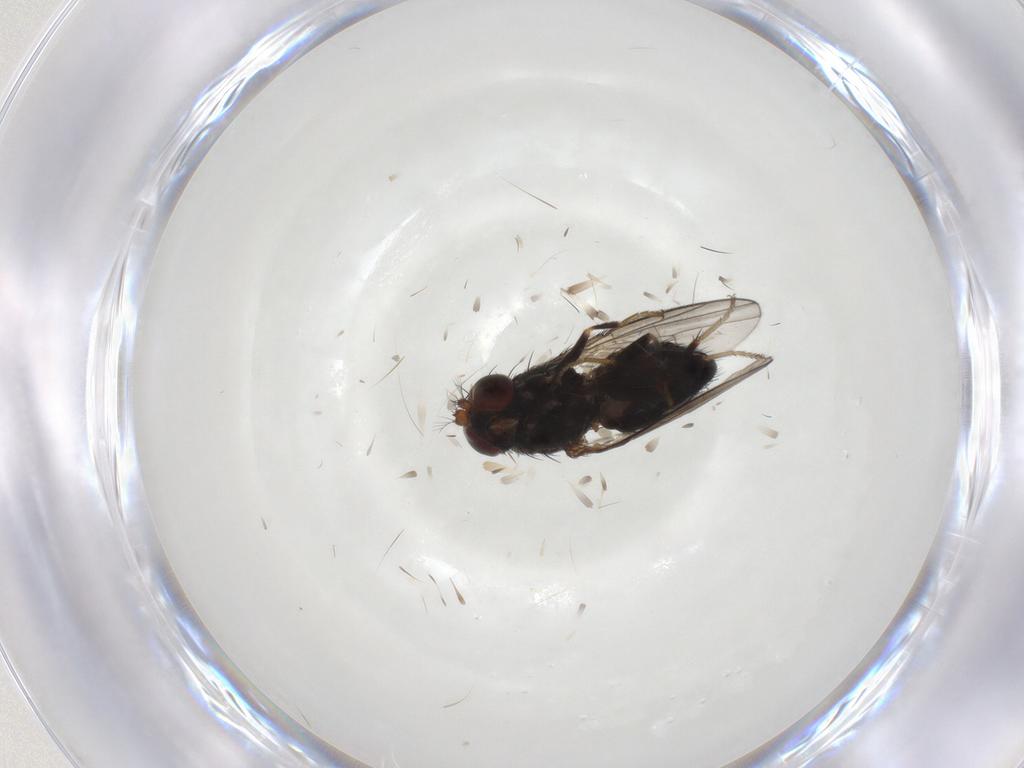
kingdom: Animalia
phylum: Arthropoda
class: Insecta
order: Diptera
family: Ephydridae
